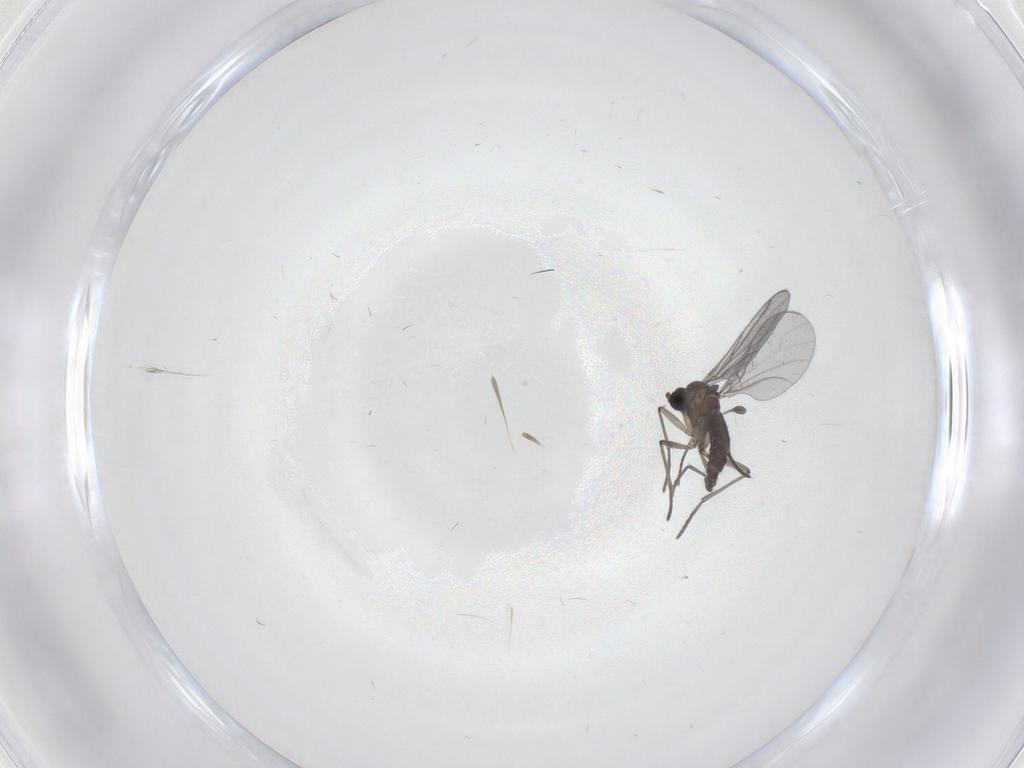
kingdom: Animalia
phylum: Arthropoda
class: Insecta
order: Diptera
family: Sciaridae
